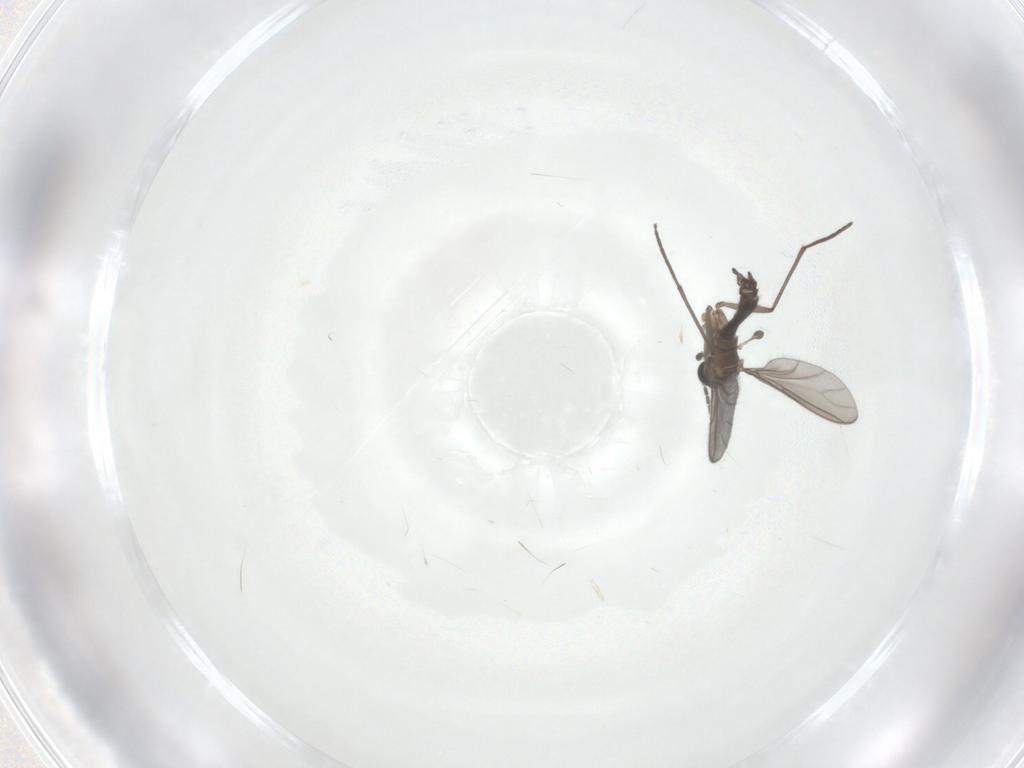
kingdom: Animalia
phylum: Arthropoda
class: Insecta
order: Diptera
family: Sciaridae
